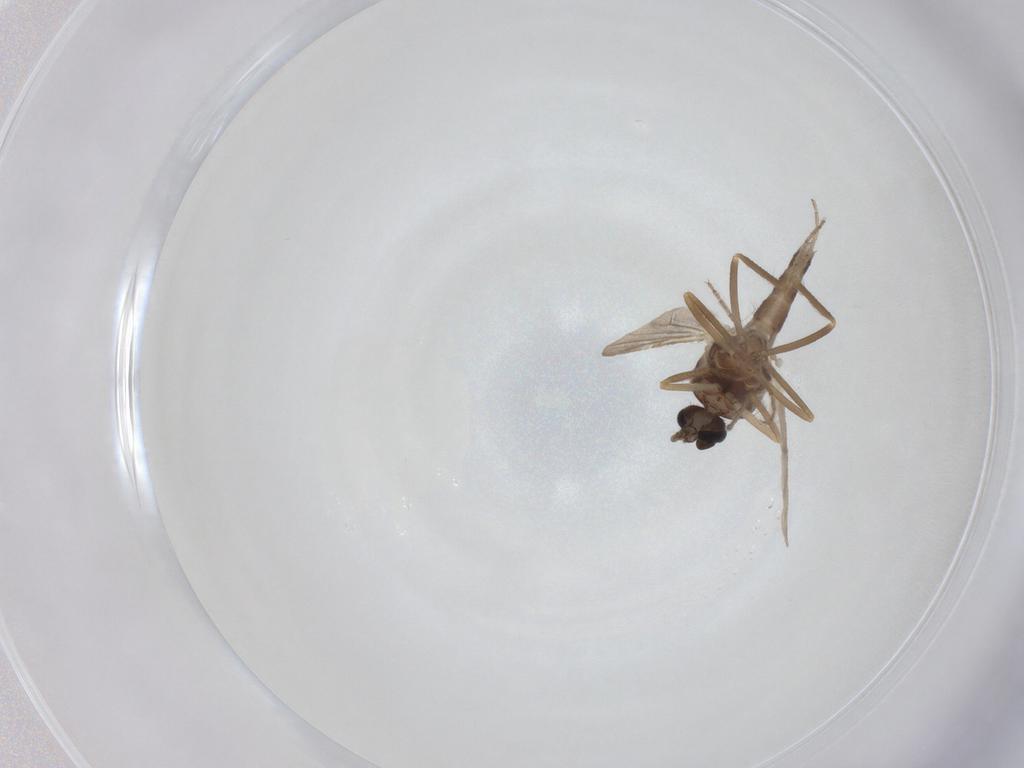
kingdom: Animalia
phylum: Arthropoda
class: Insecta
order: Diptera
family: Ceratopogonidae
